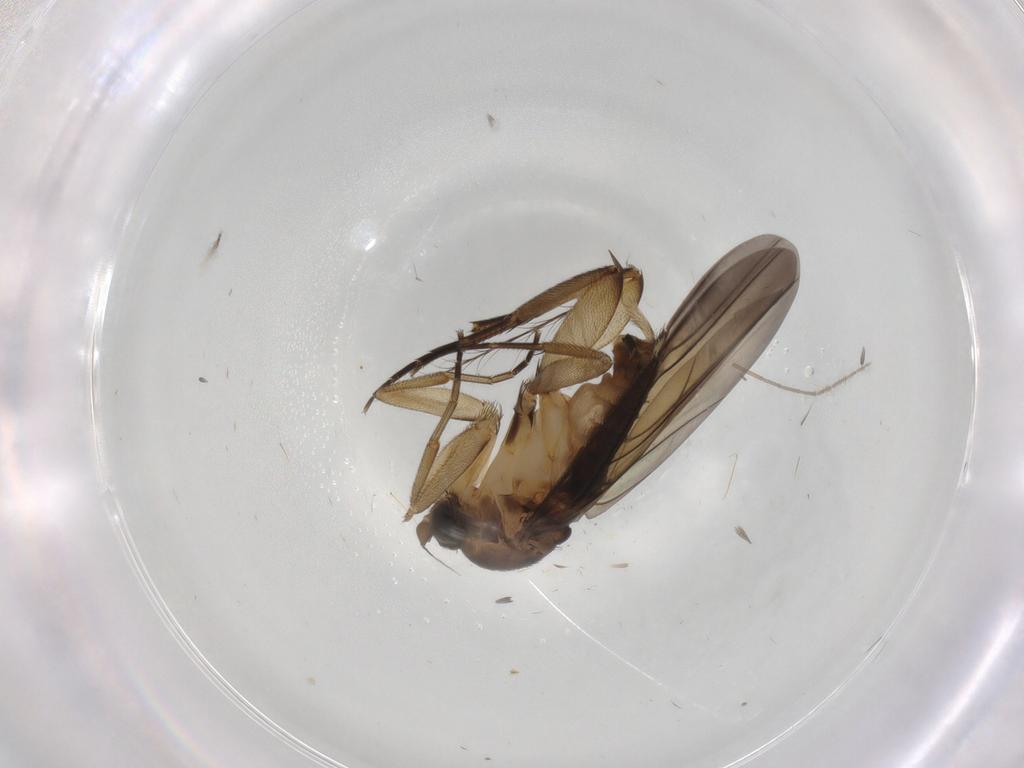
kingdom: Animalia
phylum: Arthropoda
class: Insecta
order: Diptera
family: Phoridae
